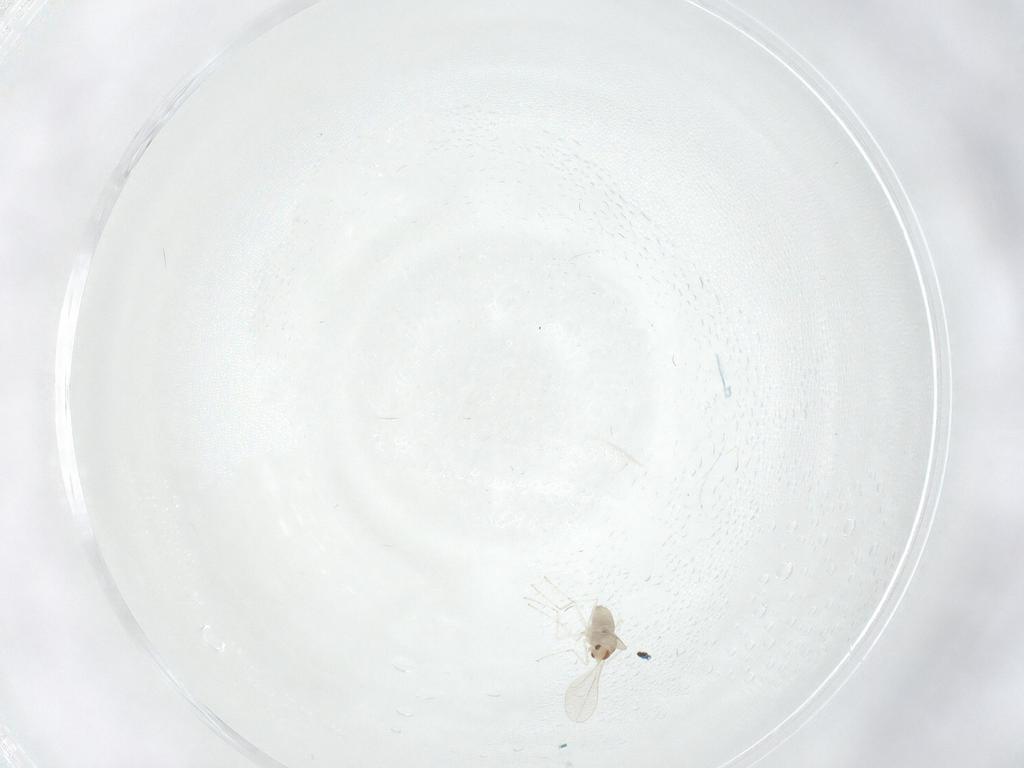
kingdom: Animalia
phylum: Arthropoda
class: Insecta
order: Diptera
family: Cecidomyiidae
